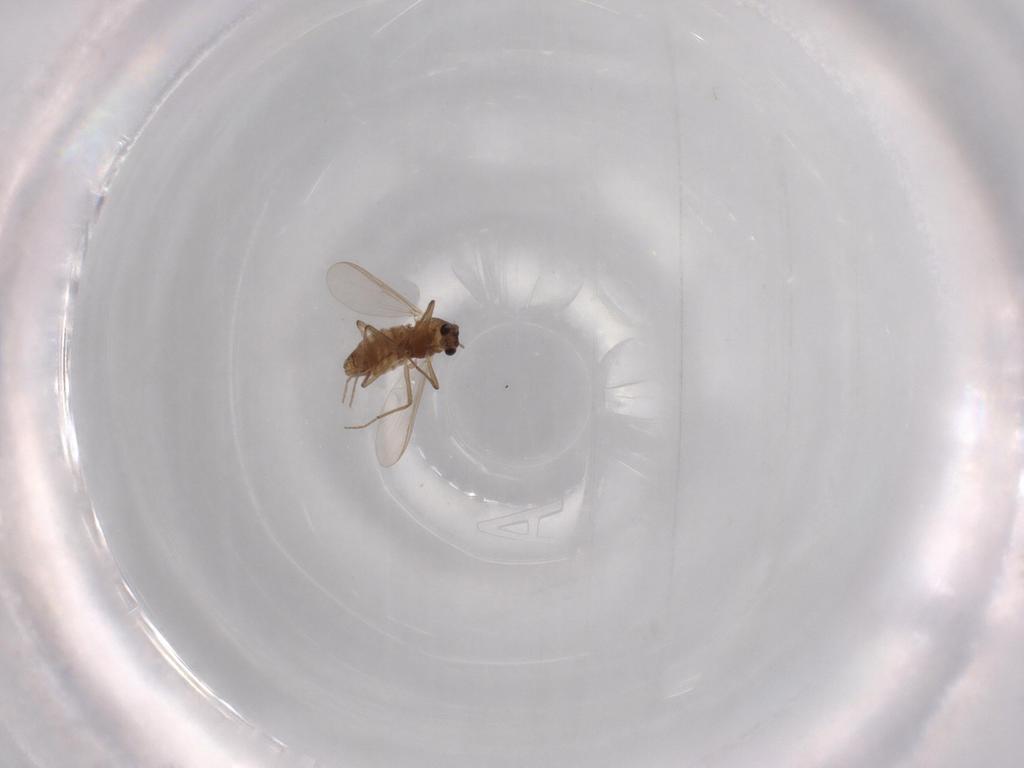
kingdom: Animalia
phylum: Arthropoda
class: Insecta
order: Diptera
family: Chironomidae
